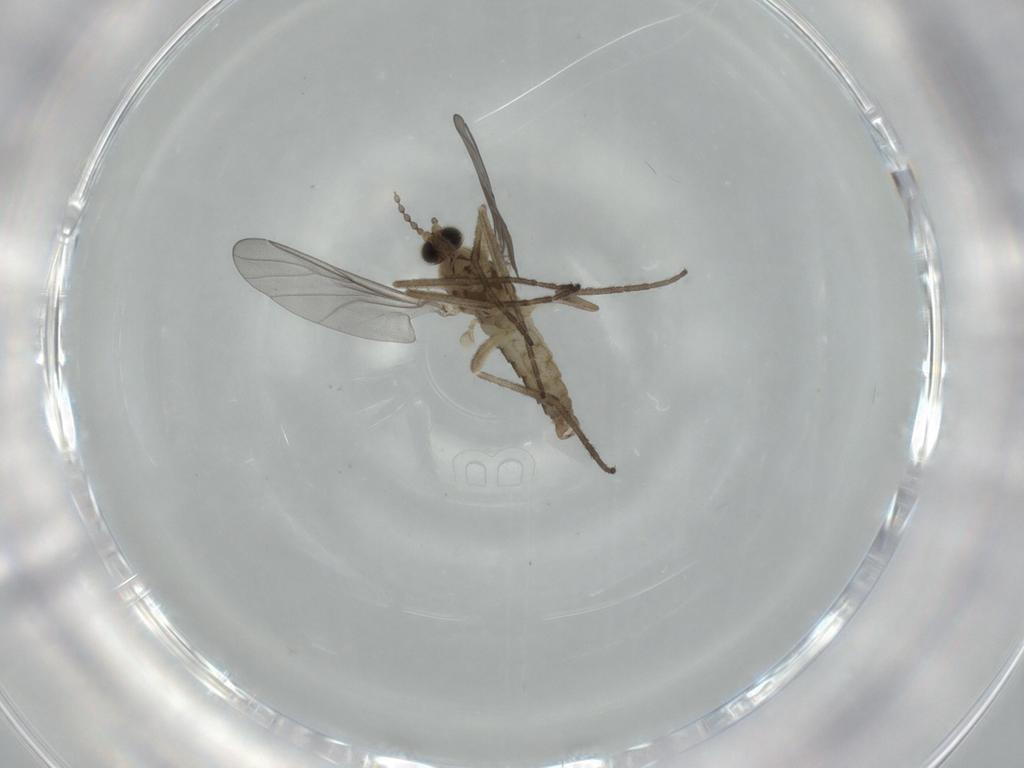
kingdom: Animalia
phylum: Arthropoda
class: Insecta
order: Diptera
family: Cecidomyiidae
